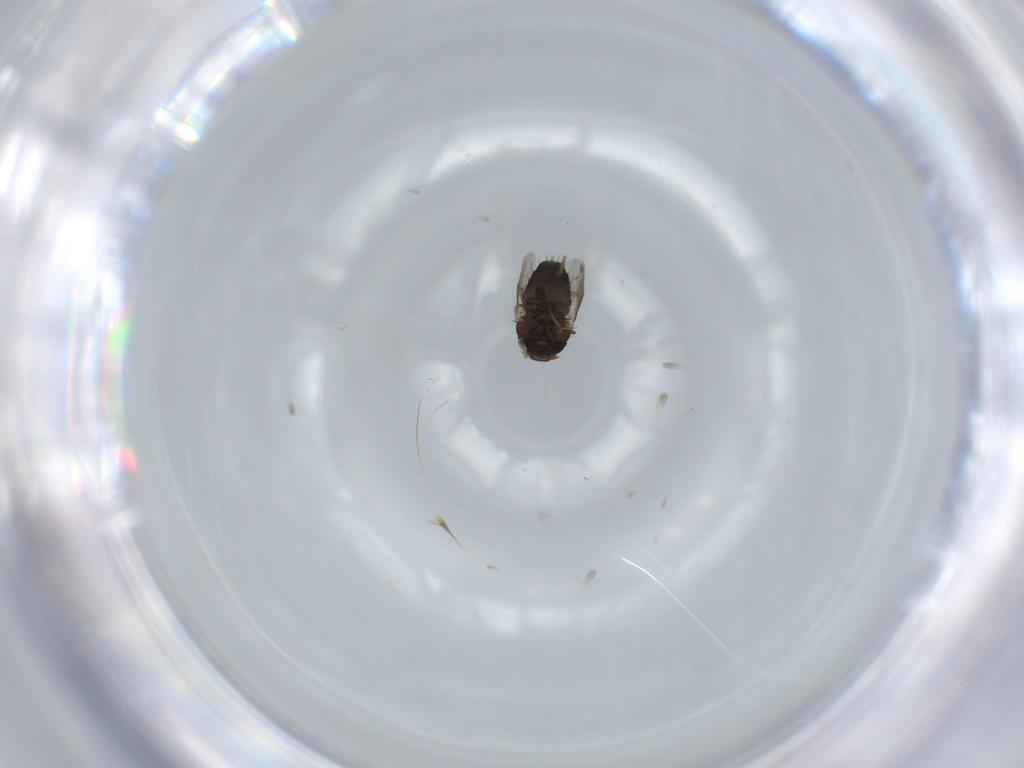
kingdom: Animalia
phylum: Arthropoda
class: Insecta
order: Diptera
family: Phoridae
